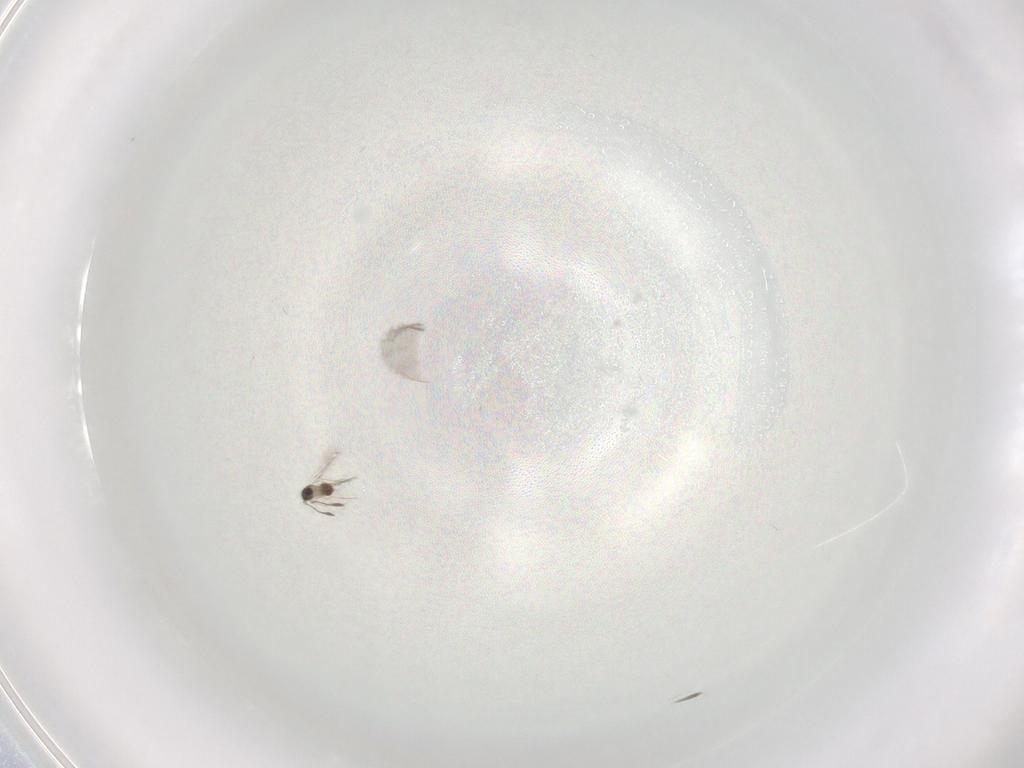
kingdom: Animalia
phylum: Arthropoda
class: Insecta
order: Hymenoptera
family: Mymaridae
